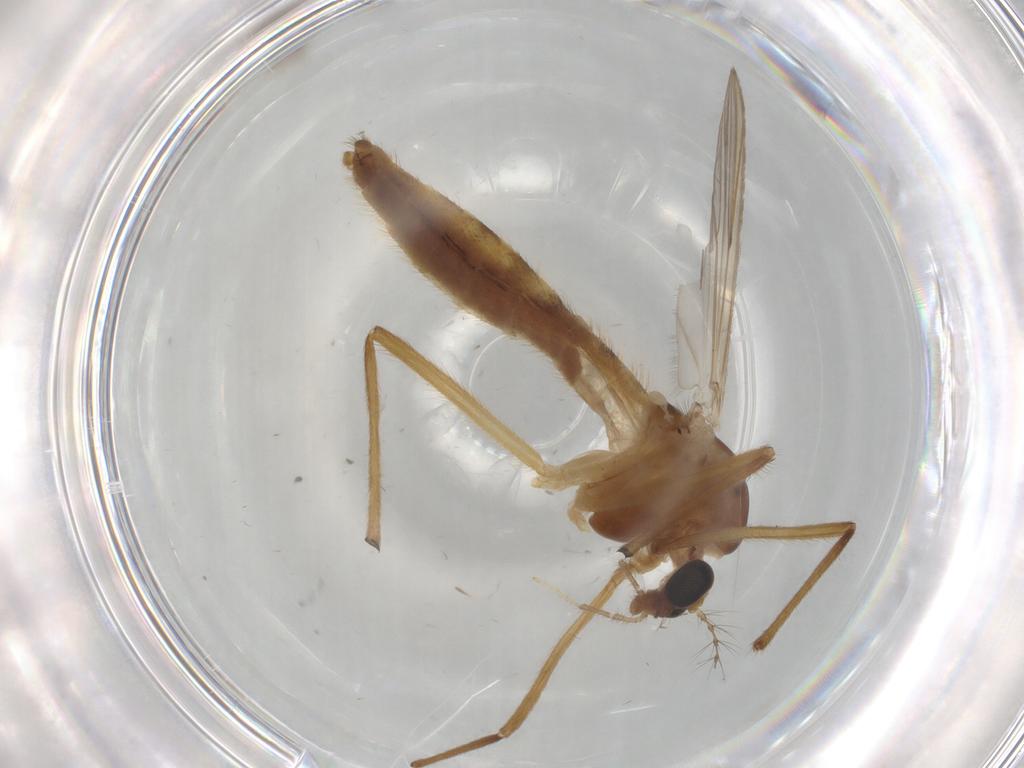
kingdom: Animalia
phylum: Arthropoda
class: Insecta
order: Diptera
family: Chironomidae
